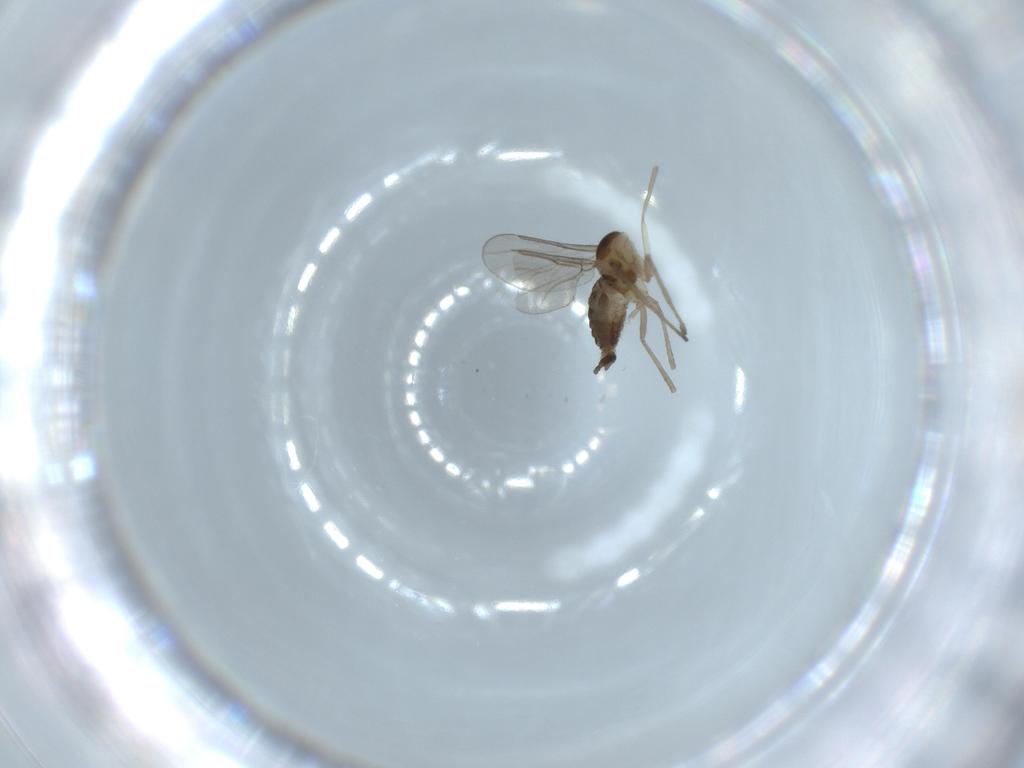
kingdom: Animalia
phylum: Arthropoda
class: Insecta
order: Diptera
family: Cecidomyiidae
